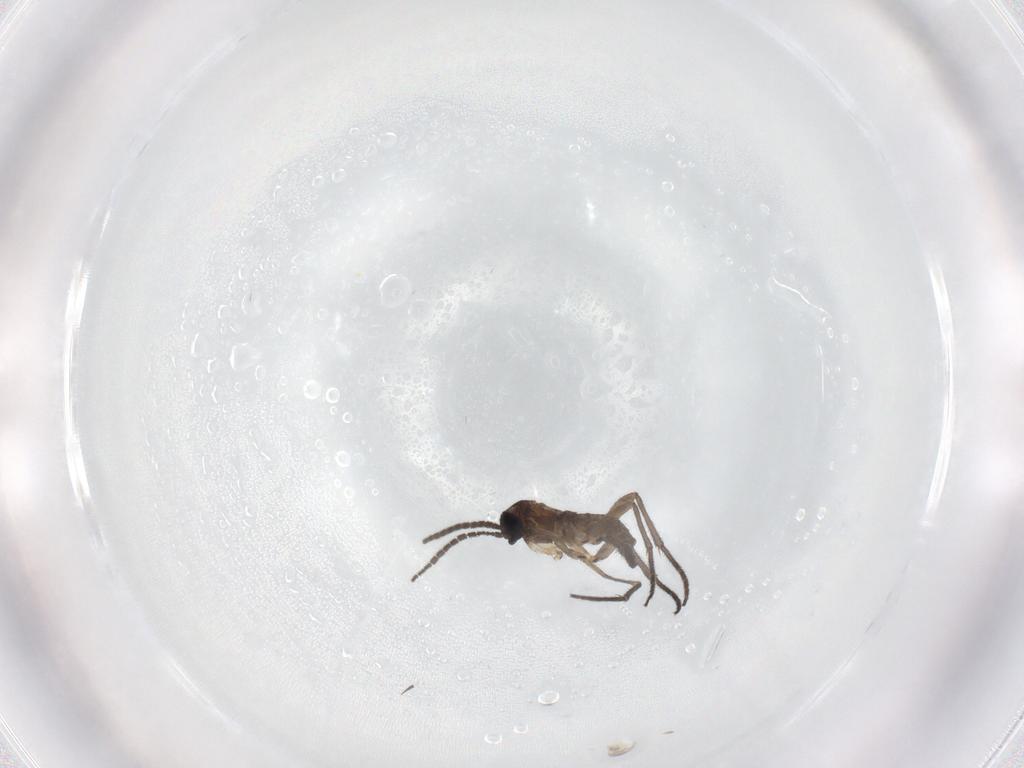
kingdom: Animalia
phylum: Arthropoda
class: Insecta
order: Diptera
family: Sciaridae
